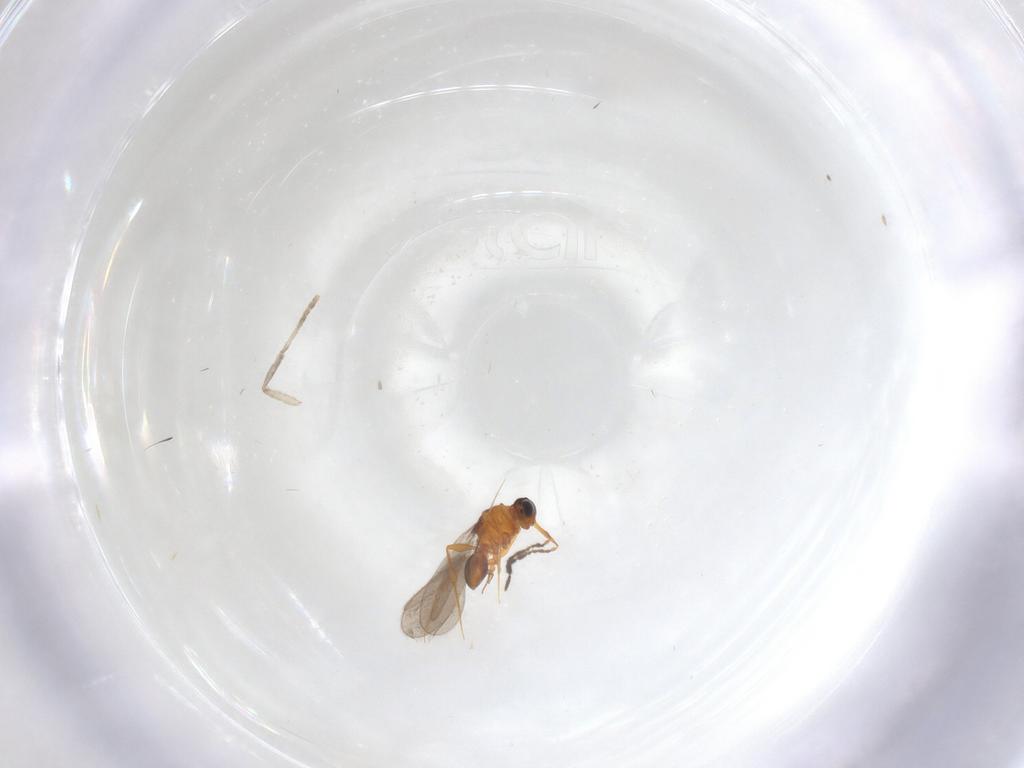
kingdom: Animalia
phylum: Arthropoda
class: Insecta
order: Hymenoptera
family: Platygastridae
